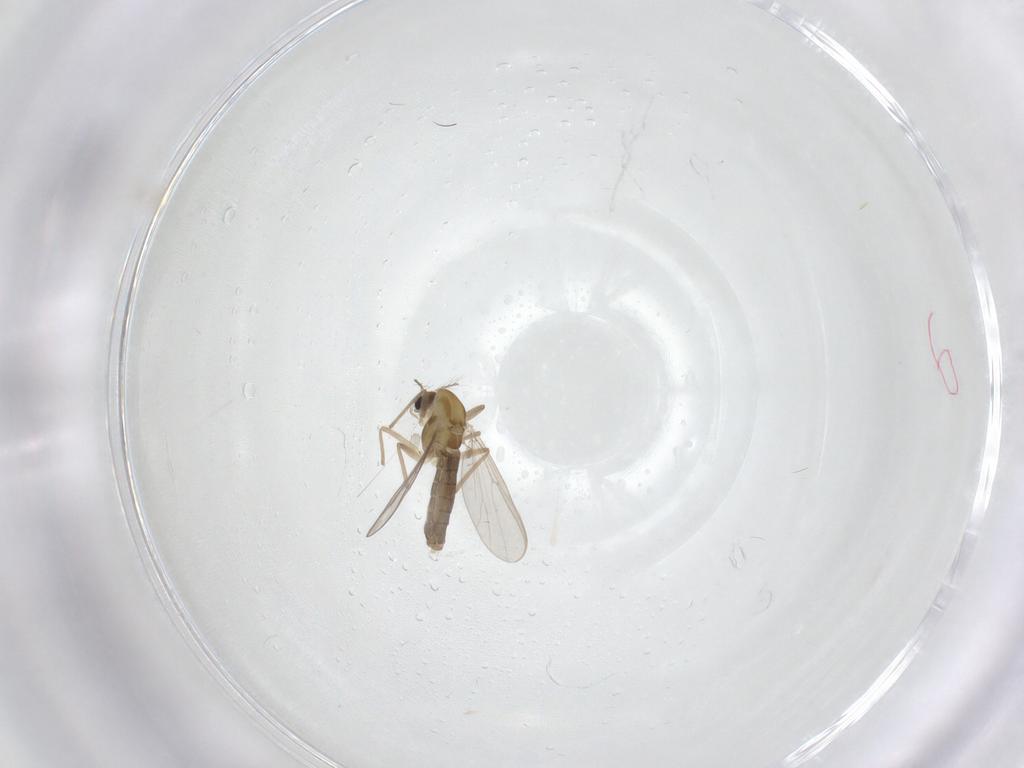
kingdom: Animalia
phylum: Arthropoda
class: Insecta
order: Diptera
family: Chironomidae
